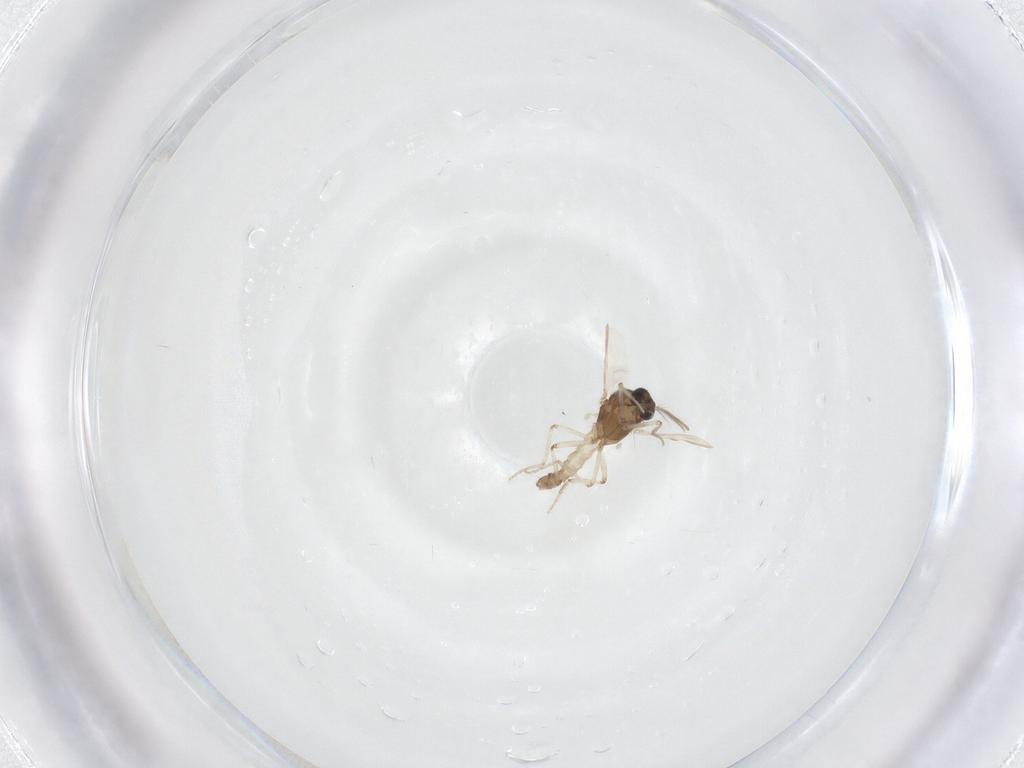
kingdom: Animalia
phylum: Arthropoda
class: Insecta
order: Diptera
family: Ceratopogonidae
